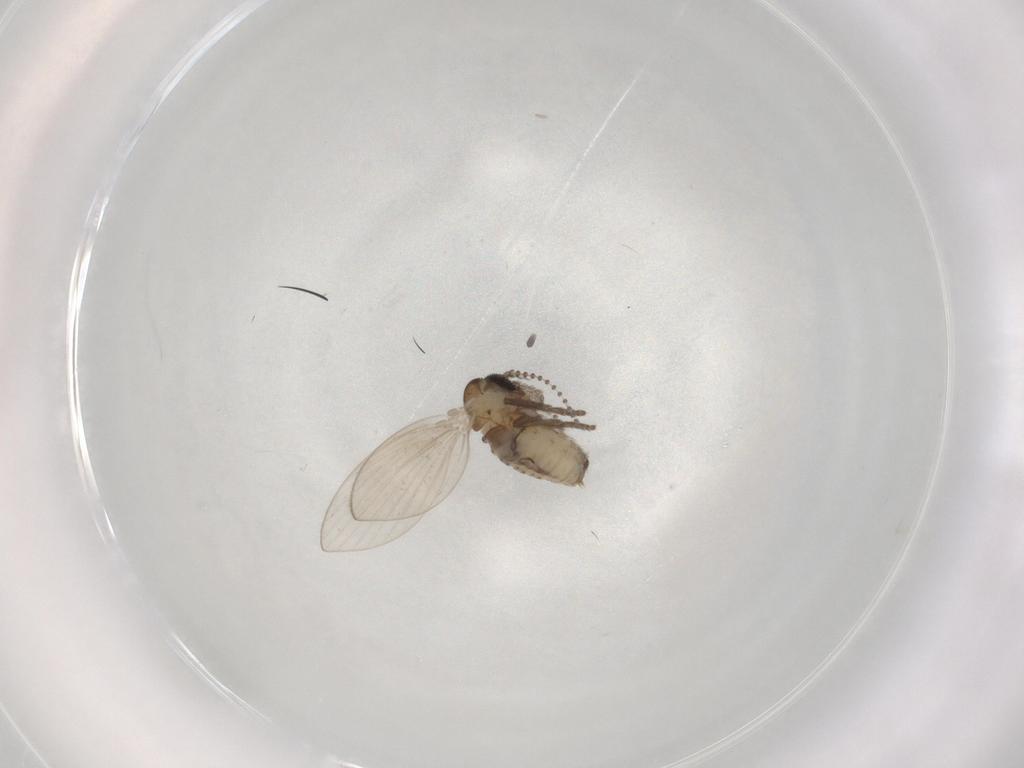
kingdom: Animalia
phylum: Arthropoda
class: Insecta
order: Diptera
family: Psychodidae
